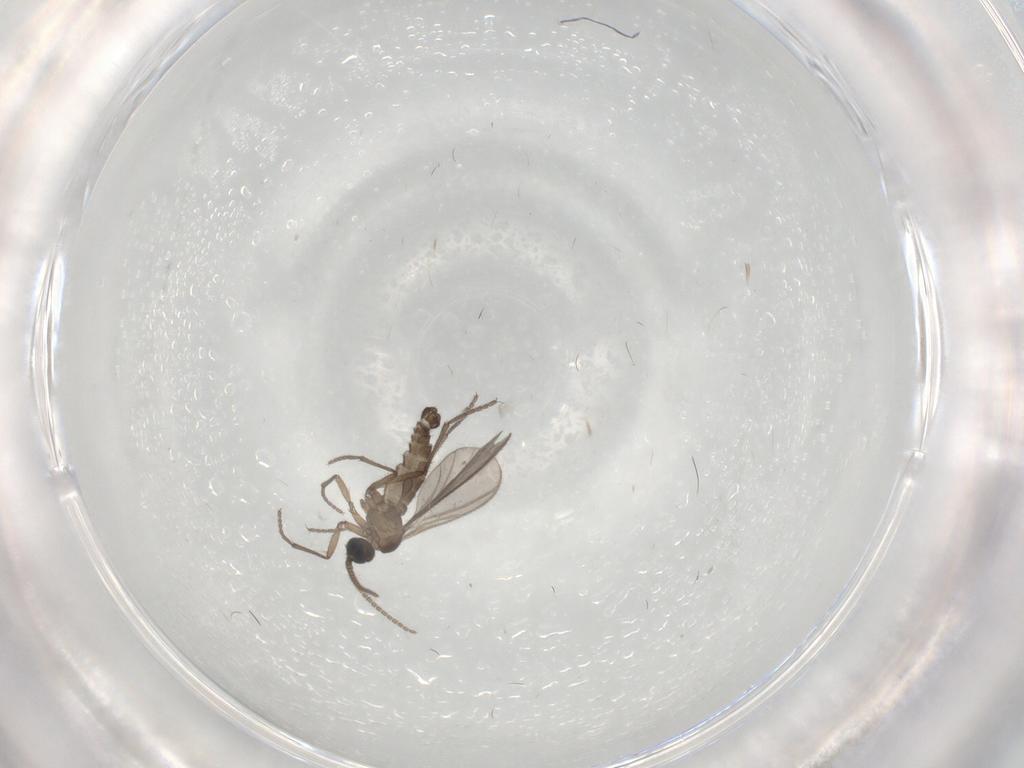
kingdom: Animalia
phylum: Arthropoda
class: Insecta
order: Diptera
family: Sciaridae
